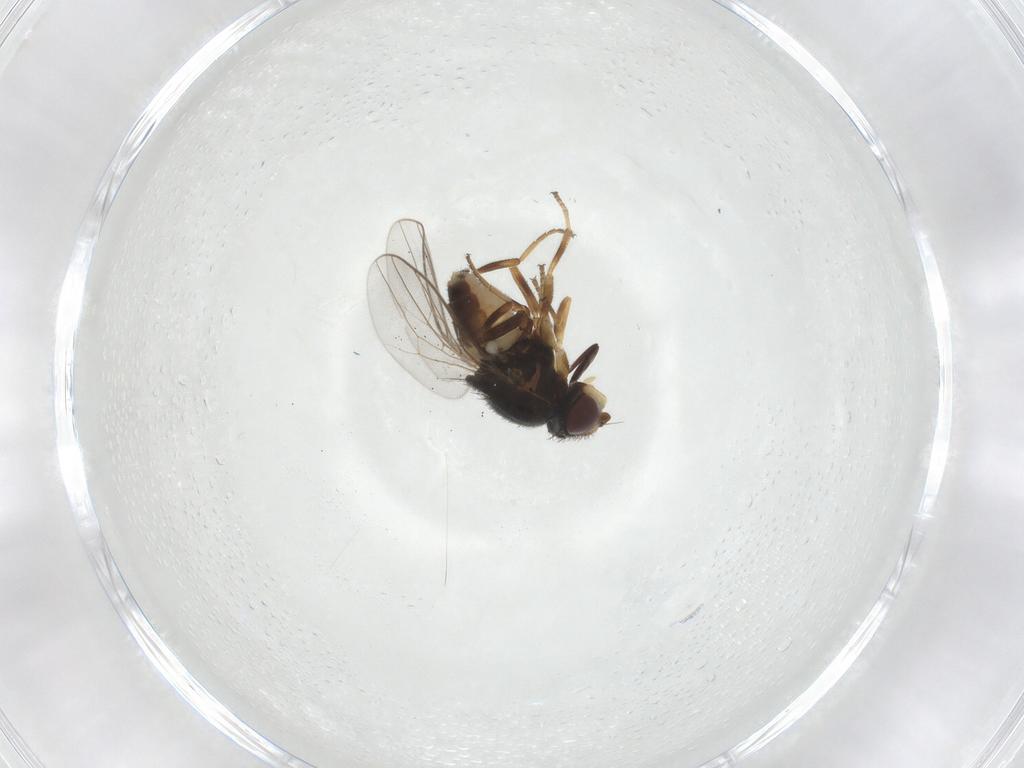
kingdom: Animalia
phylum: Arthropoda
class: Insecta
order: Diptera
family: Chloropidae
